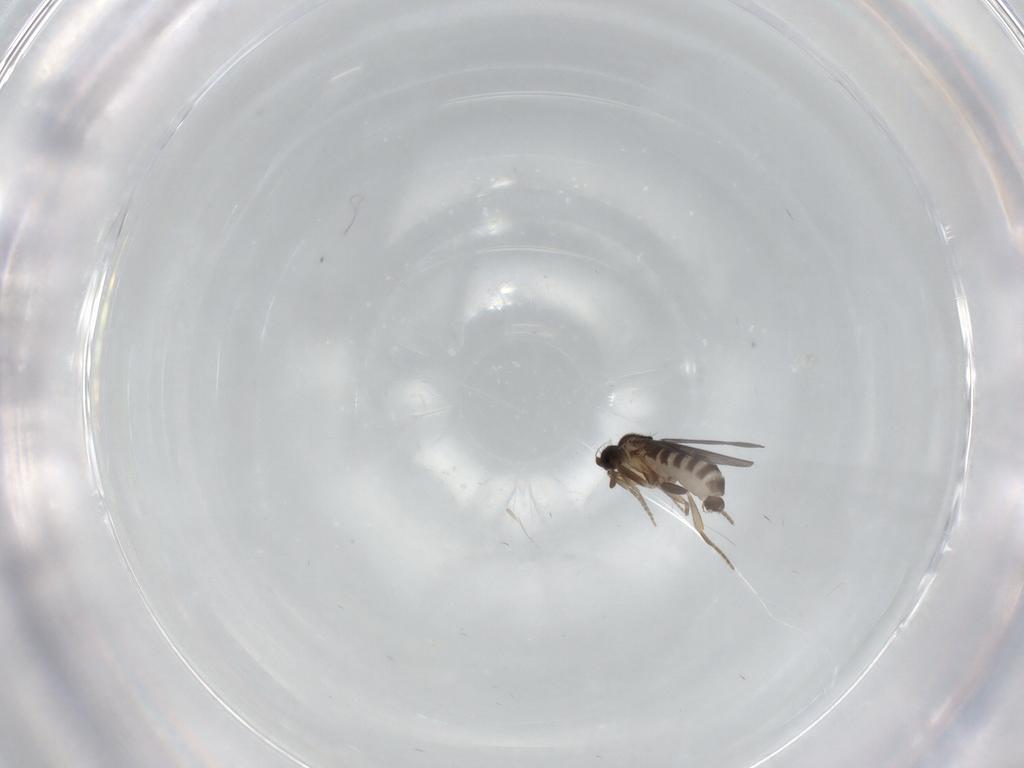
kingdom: Animalia
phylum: Arthropoda
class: Insecta
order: Diptera
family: Phoridae
